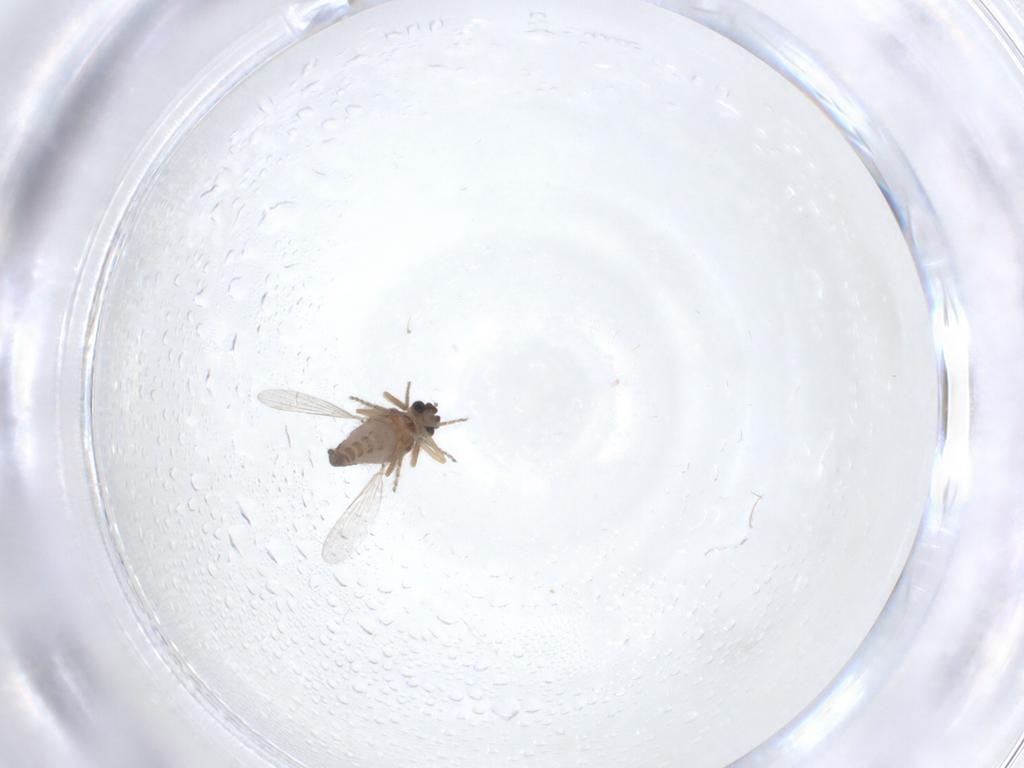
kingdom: Animalia
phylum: Arthropoda
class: Insecta
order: Diptera
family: Ceratopogonidae
